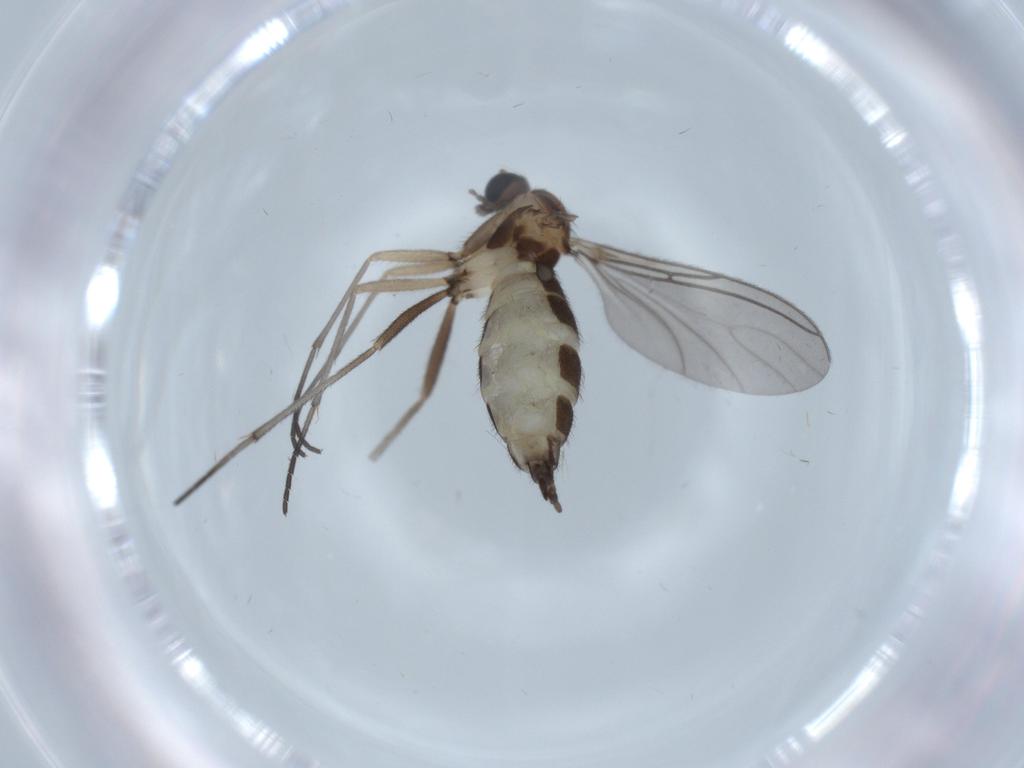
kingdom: Animalia
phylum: Arthropoda
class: Insecta
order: Diptera
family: Sciaridae
